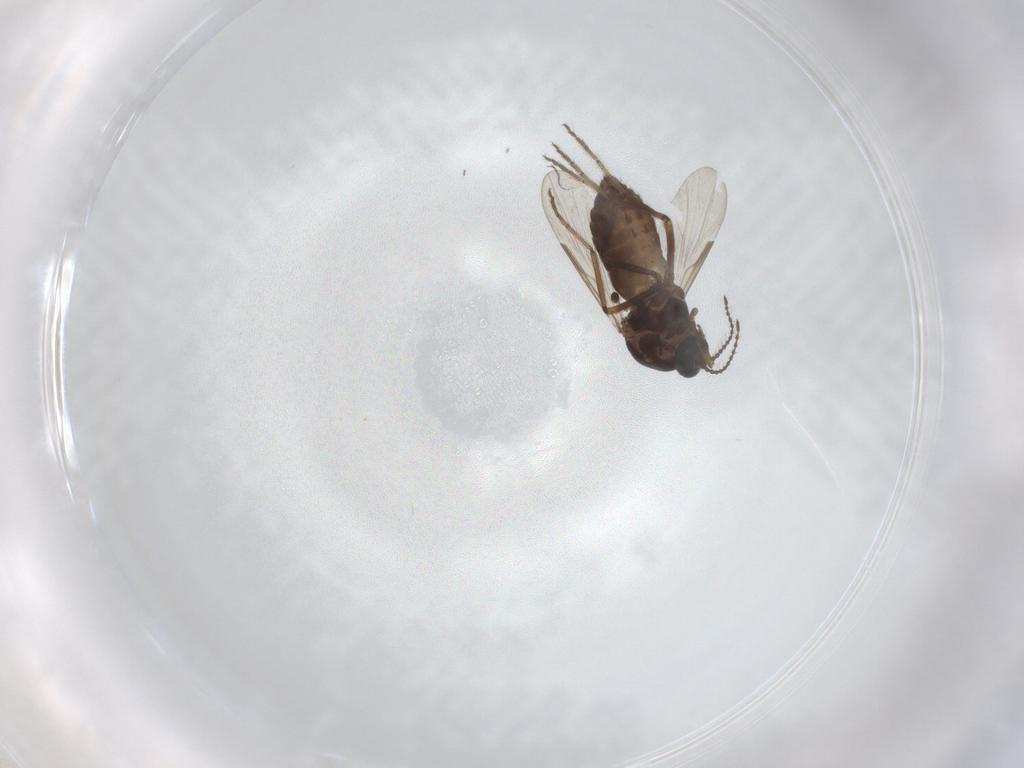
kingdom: Animalia
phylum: Arthropoda
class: Insecta
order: Diptera
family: Ceratopogonidae
